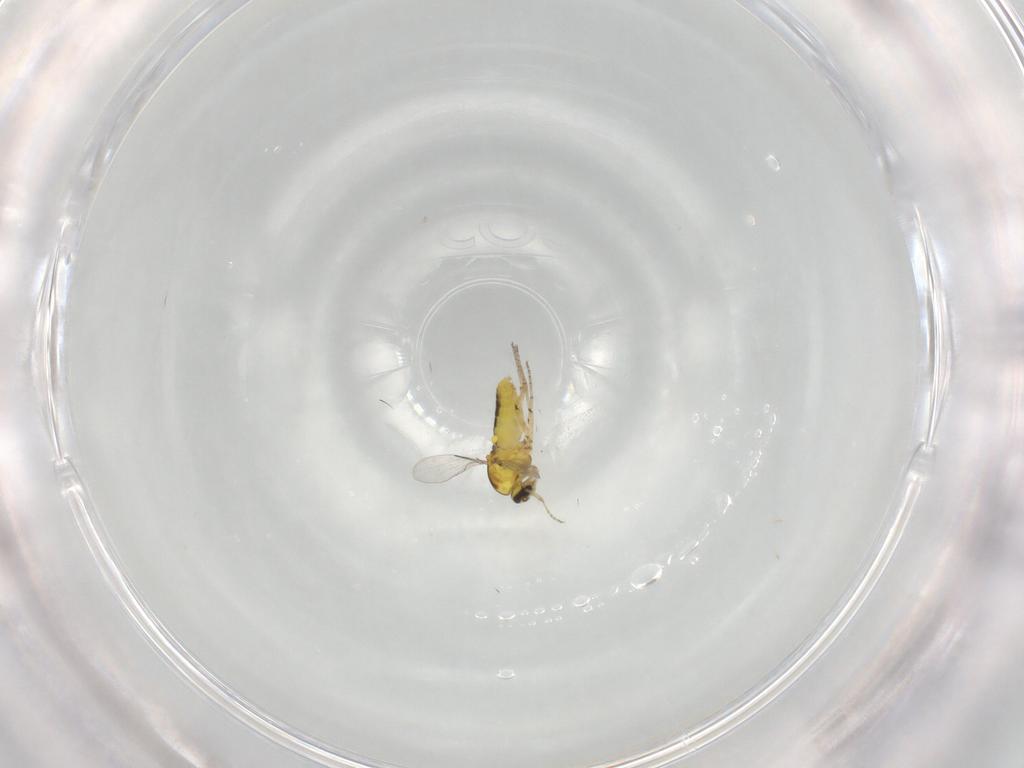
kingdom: Animalia
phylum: Arthropoda
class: Insecta
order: Diptera
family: Ceratopogonidae
